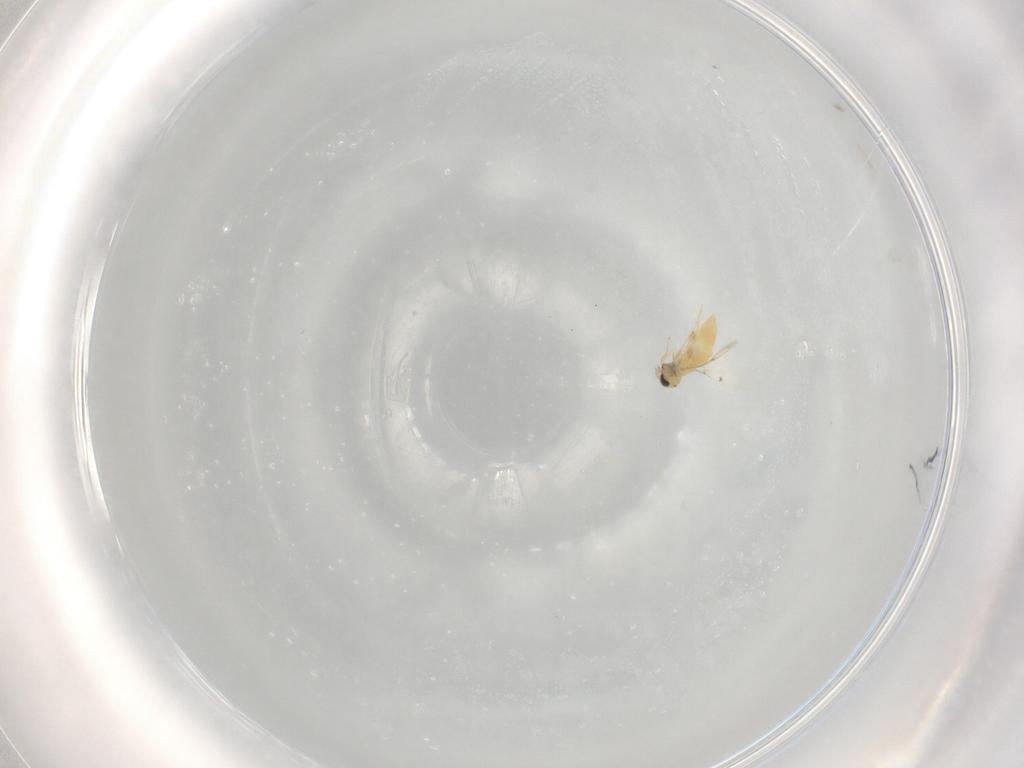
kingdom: Animalia
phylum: Arthropoda
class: Insecta
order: Hymenoptera
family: Trichogrammatidae
